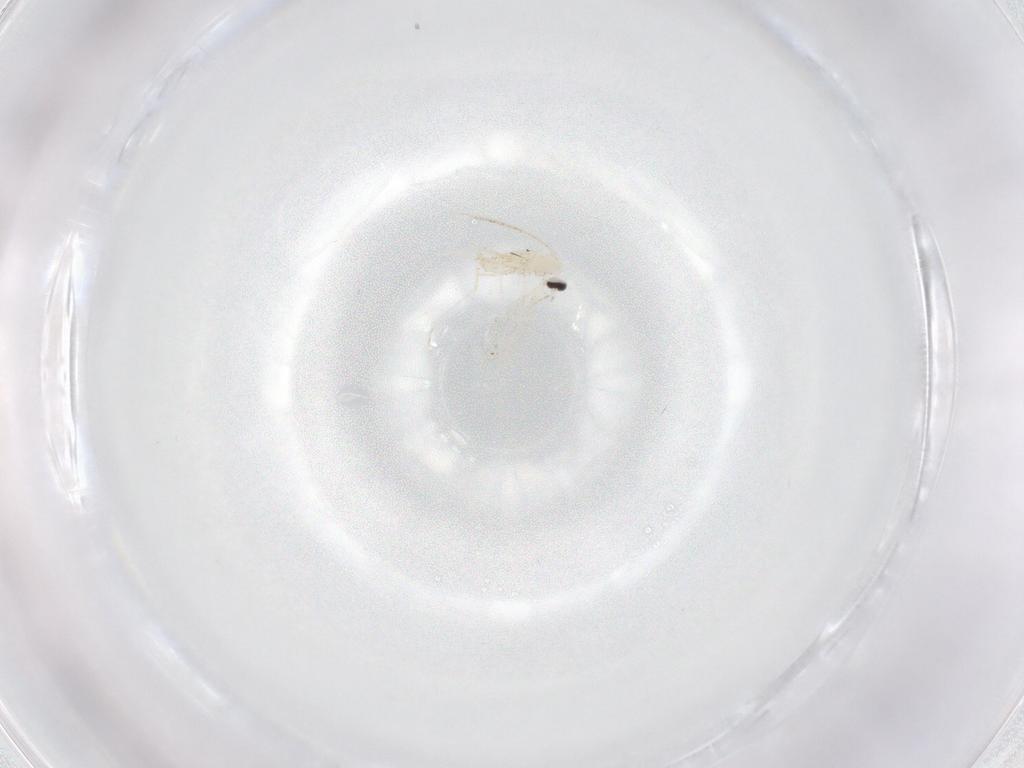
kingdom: Animalia
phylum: Arthropoda
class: Insecta
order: Diptera
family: Cecidomyiidae
